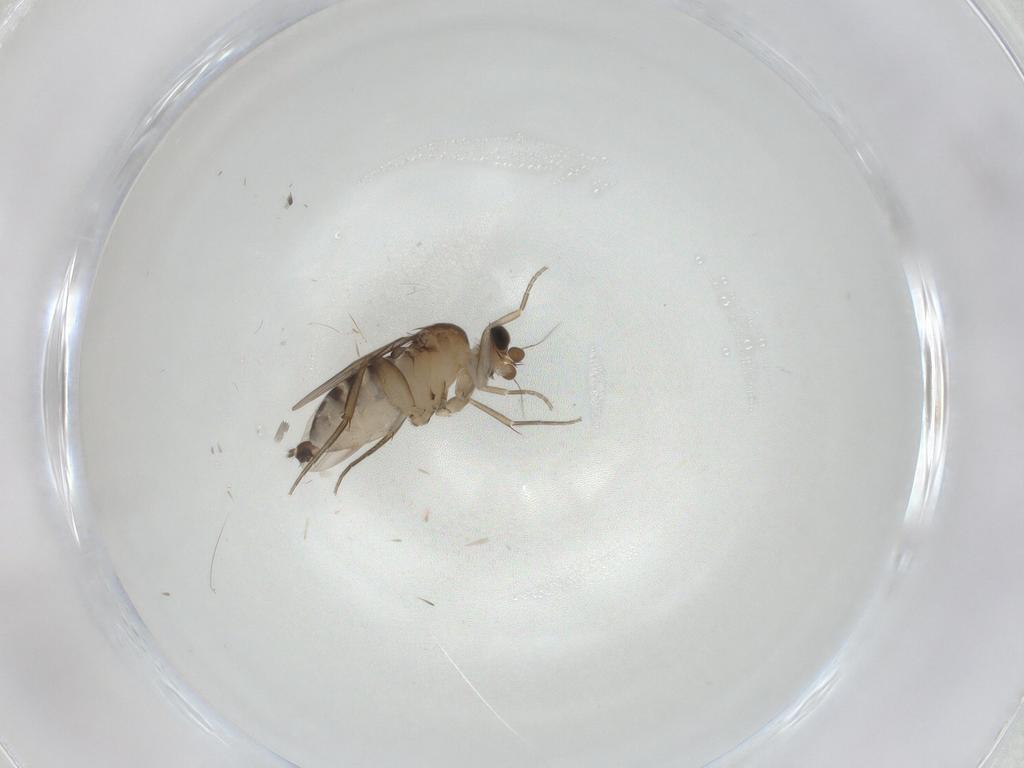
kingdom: Animalia
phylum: Arthropoda
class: Insecta
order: Diptera
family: Phoridae
